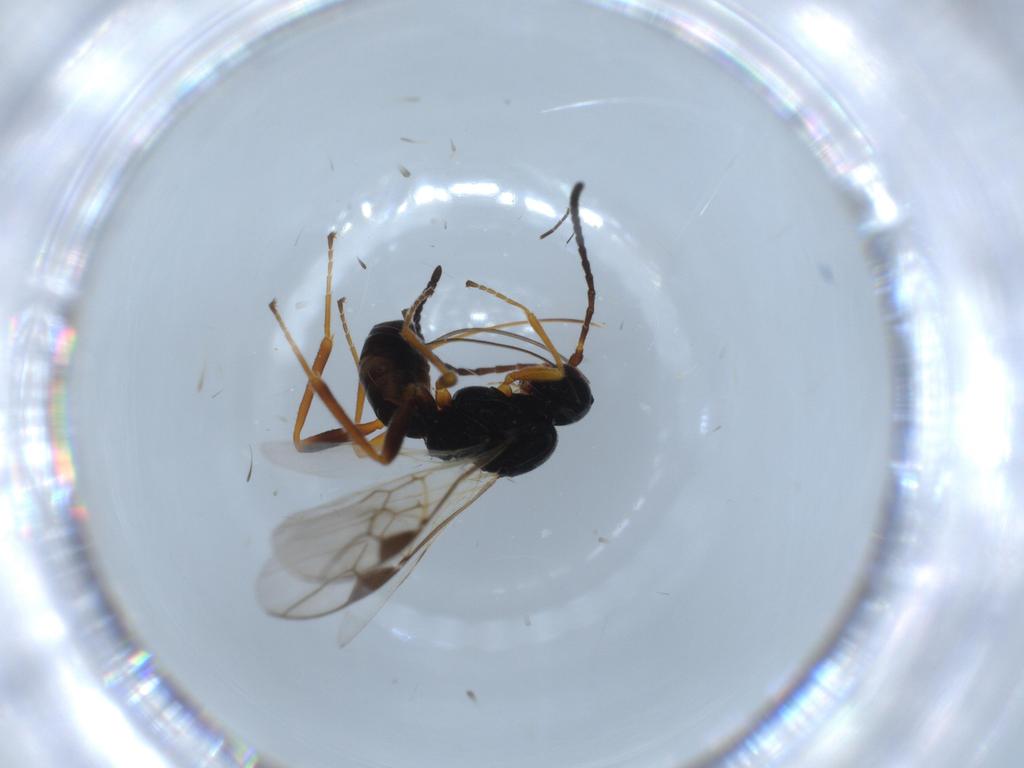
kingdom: Animalia
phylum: Arthropoda
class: Insecta
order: Hymenoptera
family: Braconidae
